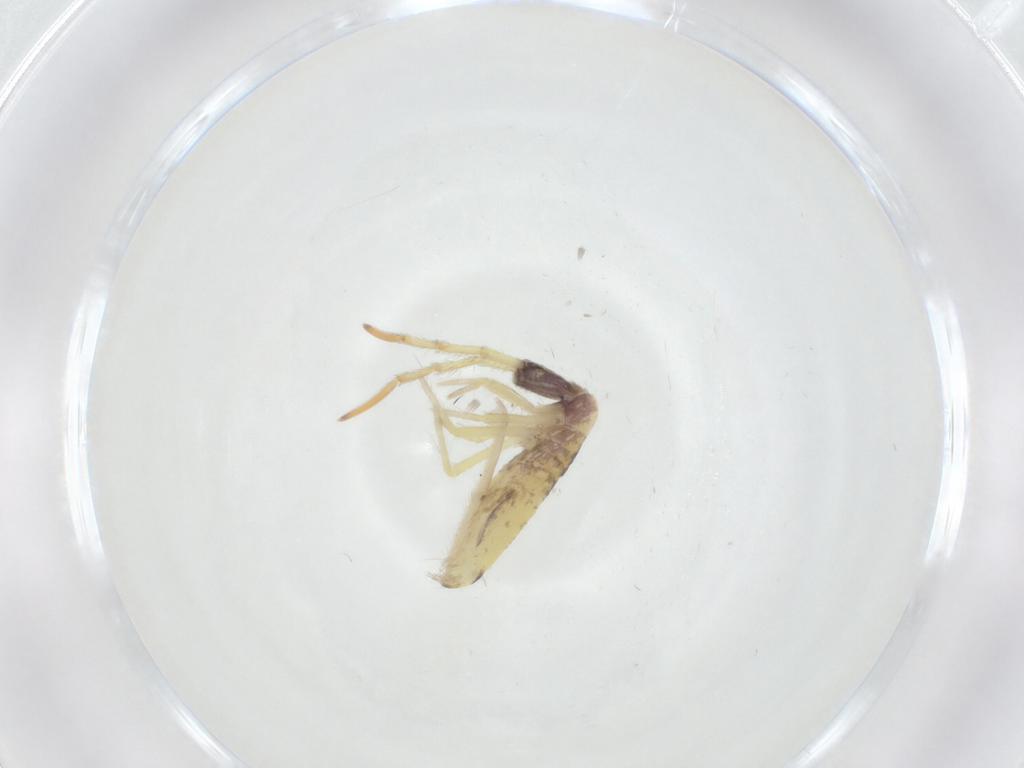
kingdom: Animalia
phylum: Arthropoda
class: Collembola
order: Entomobryomorpha
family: Entomobryidae
